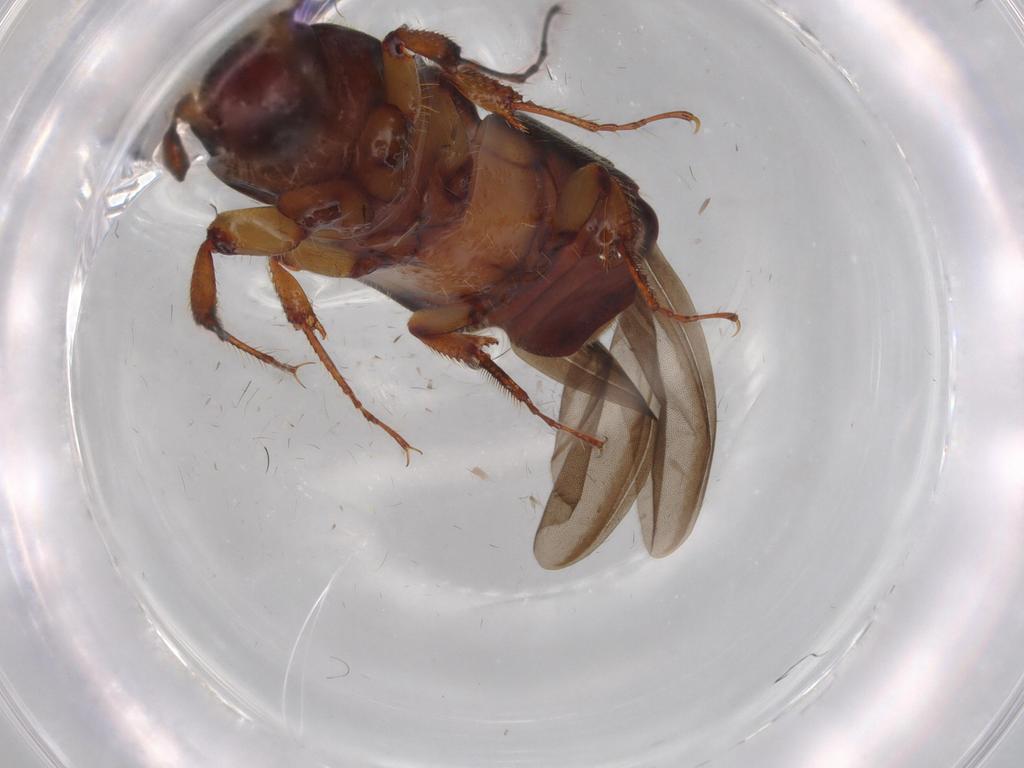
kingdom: Animalia
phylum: Arthropoda
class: Insecta
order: Coleoptera
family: Curculionidae
